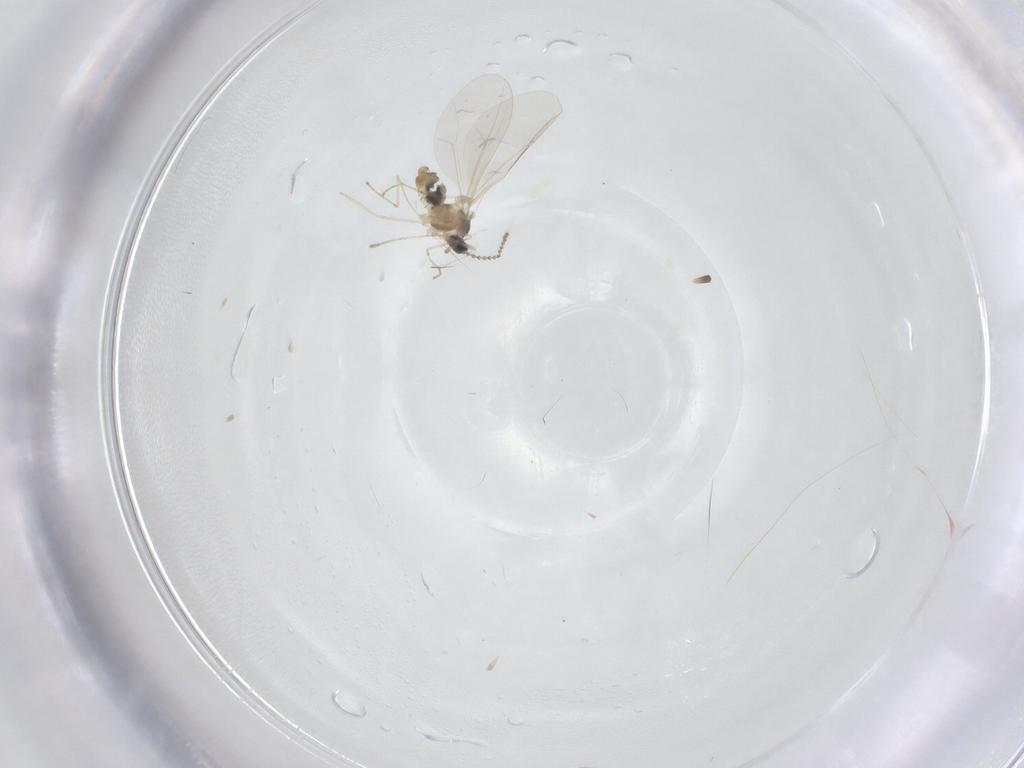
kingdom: Animalia
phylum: Arthropoda
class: Insecta
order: Diptera
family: Cecidomyiidae
